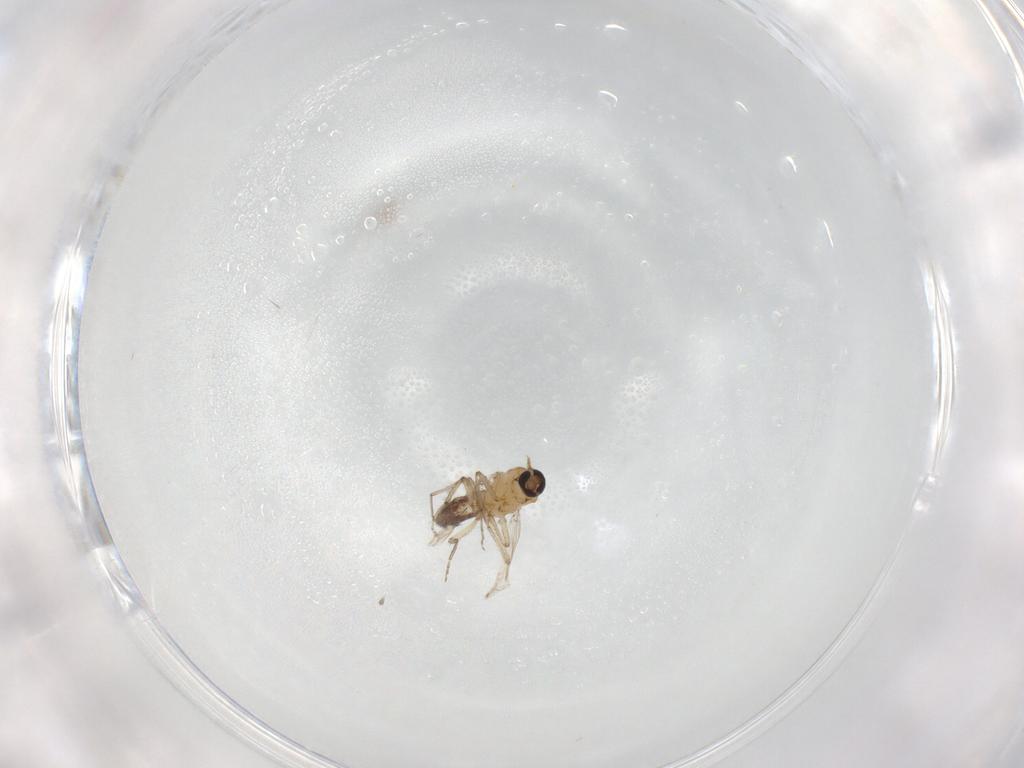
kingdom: Animalia
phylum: Arthropoda
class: Insecta
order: Diptera
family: Ceratopogonidae
